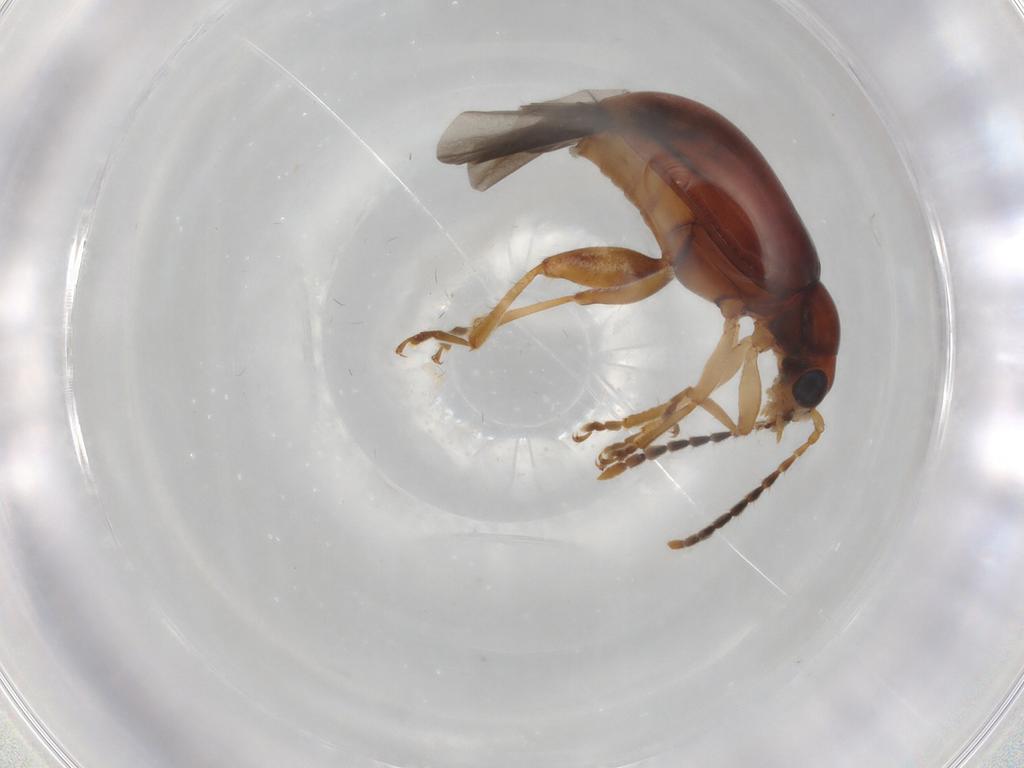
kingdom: Animalia
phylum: Arthropoda
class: Insecta
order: Coleoptera
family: Chrysomelidae
